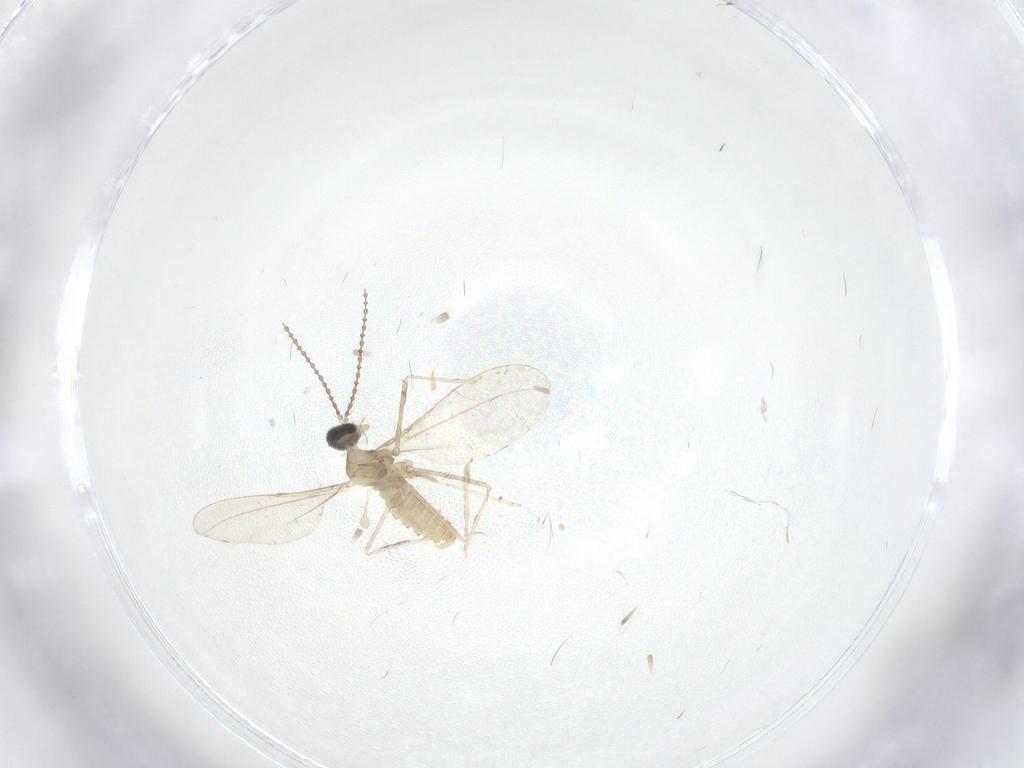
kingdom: Animalia
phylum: Arthropoda
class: Insecta
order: Diptera
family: Cecidomyiidae
